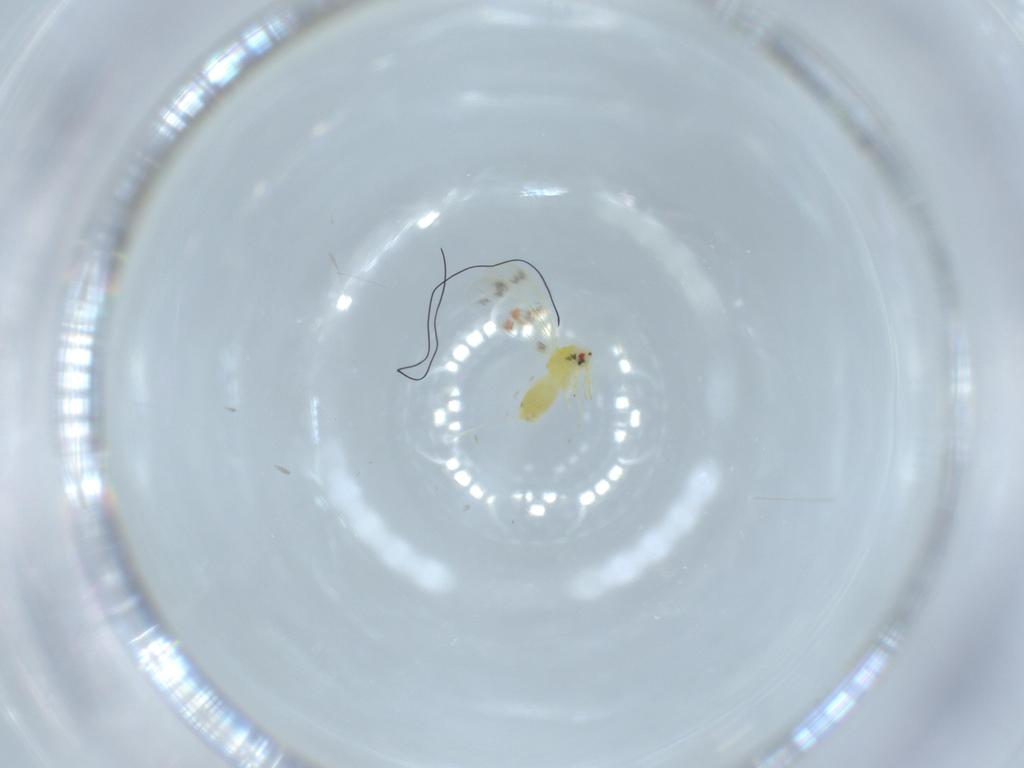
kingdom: Animalia
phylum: Arthropoda
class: Insecta
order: Hemiptera
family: Aleyrodidae
